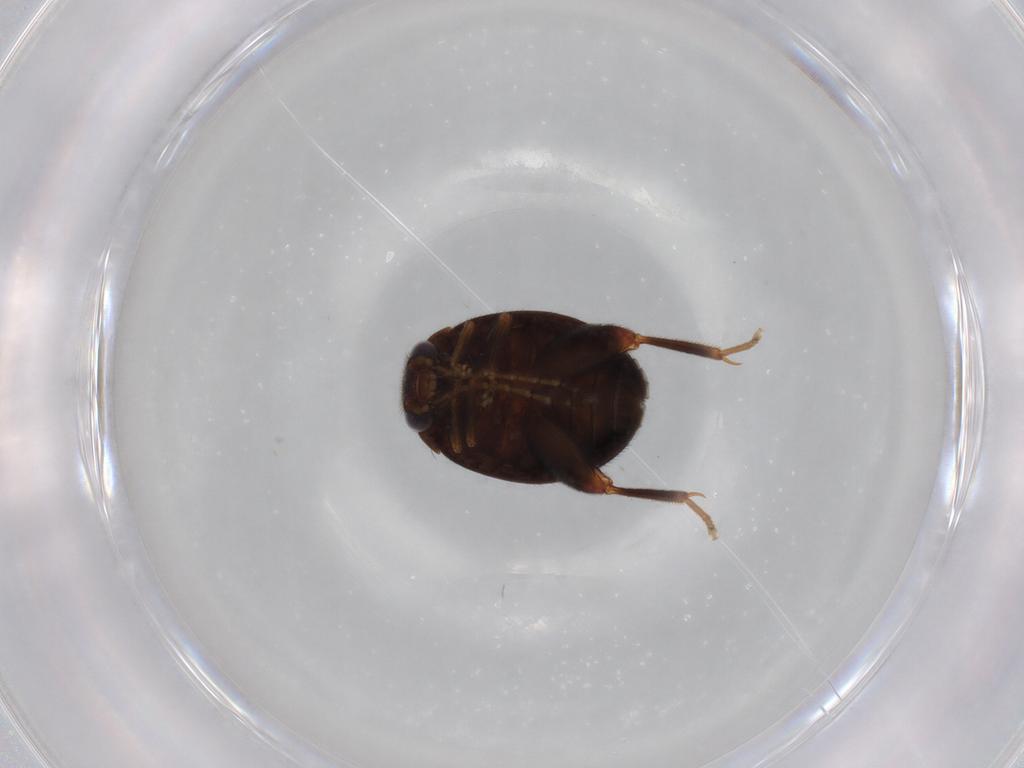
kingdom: Animalia
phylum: Arthropoda
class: Insecta
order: Coleoptera
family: Scirtidae
